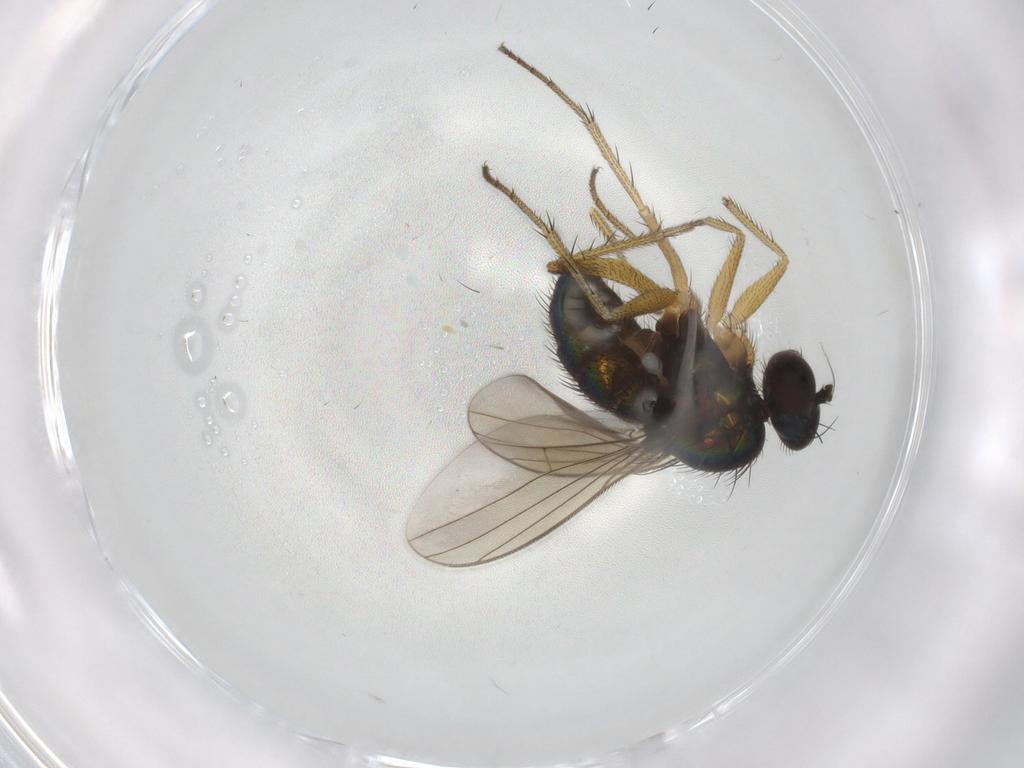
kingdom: Animalia
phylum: Arthropoda
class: Insecta
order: Diptera
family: Dolichopodidae
